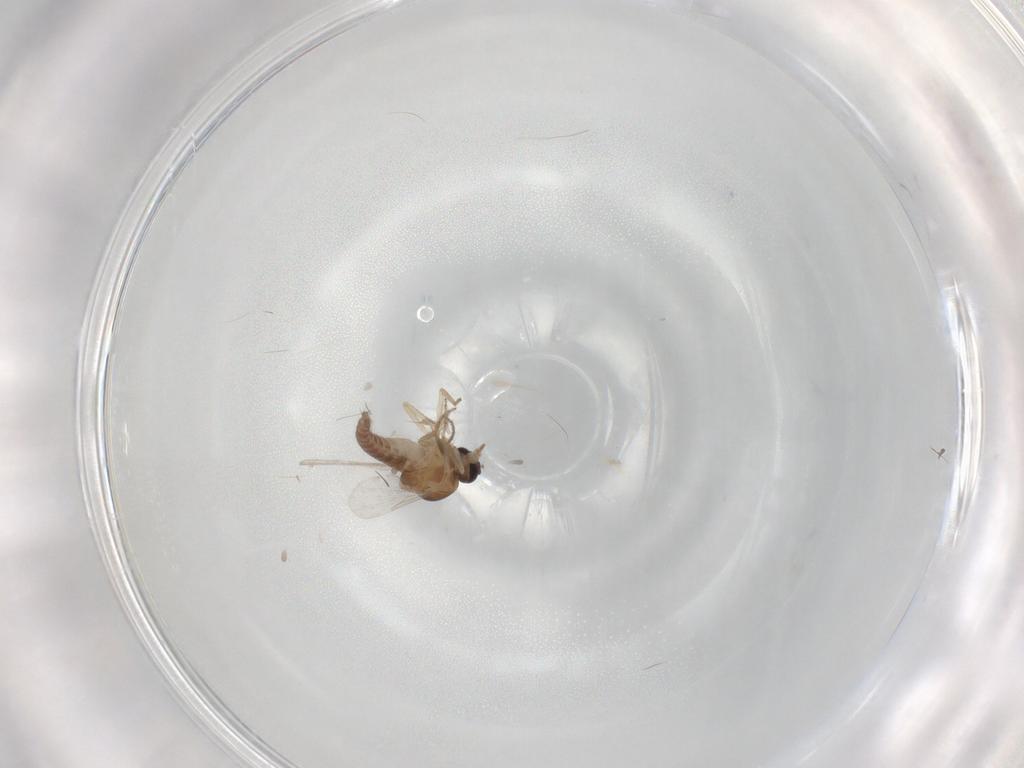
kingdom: Animalia
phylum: Arthropoda
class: Insecta
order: Diptera
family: Ceratopogonidae
